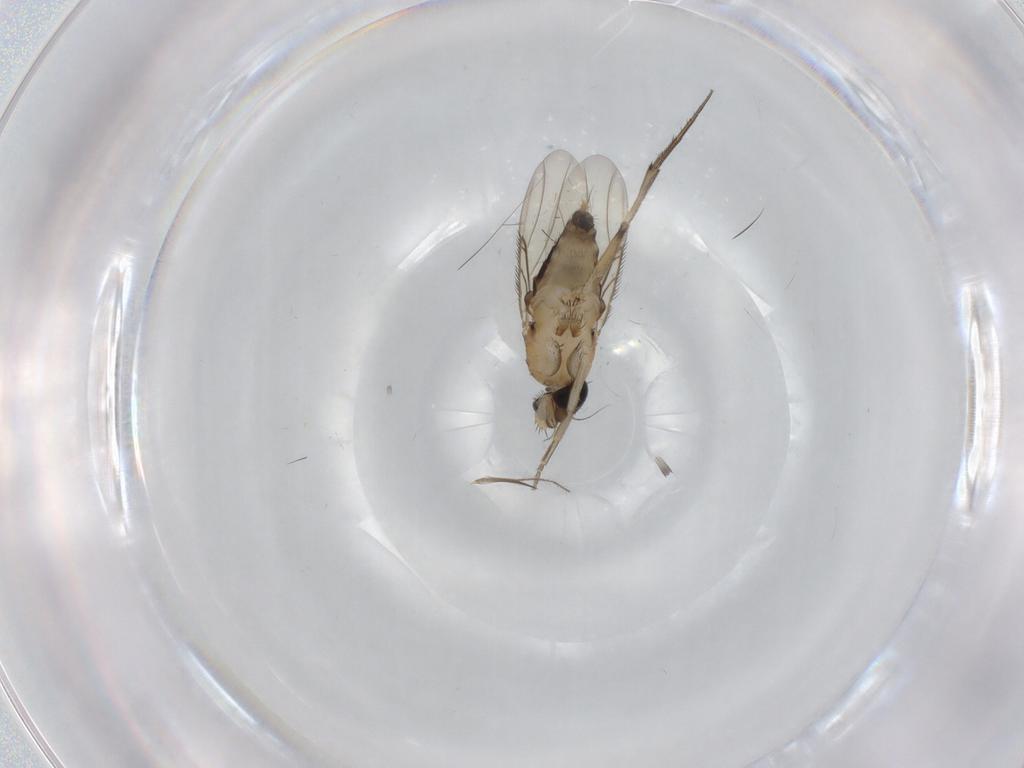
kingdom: Animalia
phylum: Arthropoda
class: Insecta
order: Diptera
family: Phoridae
